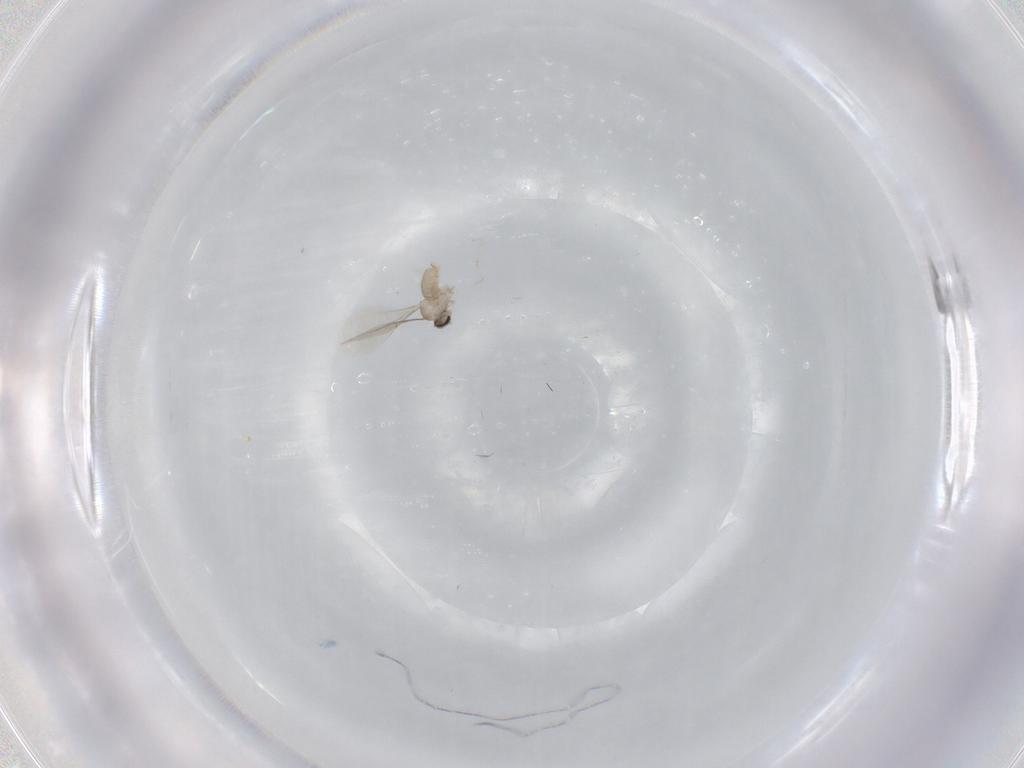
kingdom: Animalia
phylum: Arthropoda
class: Insecta
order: Diptera
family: Cecidomyiidae
